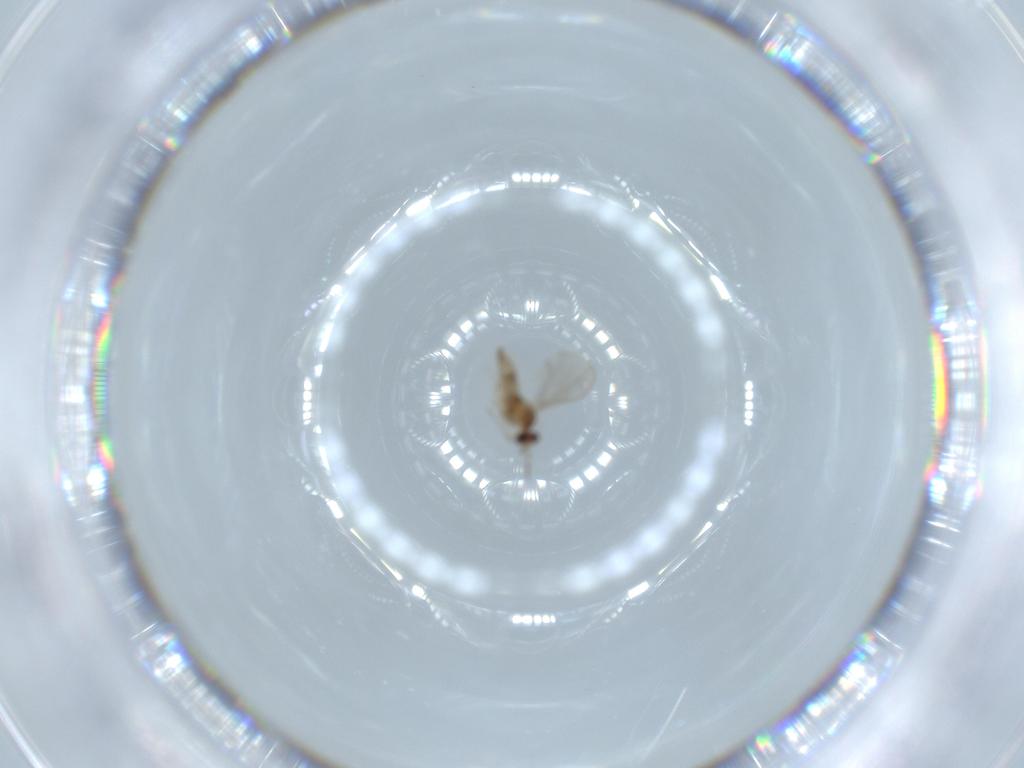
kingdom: Animalia
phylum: Arthropoda
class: Insecta
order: Diptera
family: Cecidomyiidae
